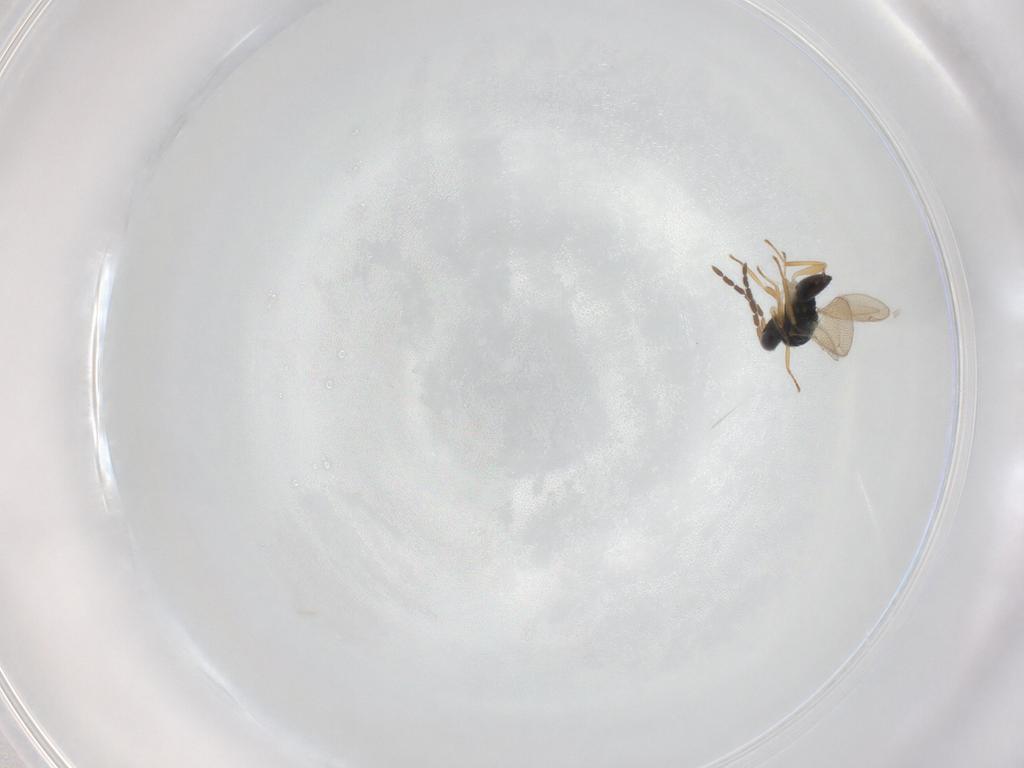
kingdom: Animalia
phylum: Arthropoda
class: Insecta
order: Hymenoptera
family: Eulophidae
